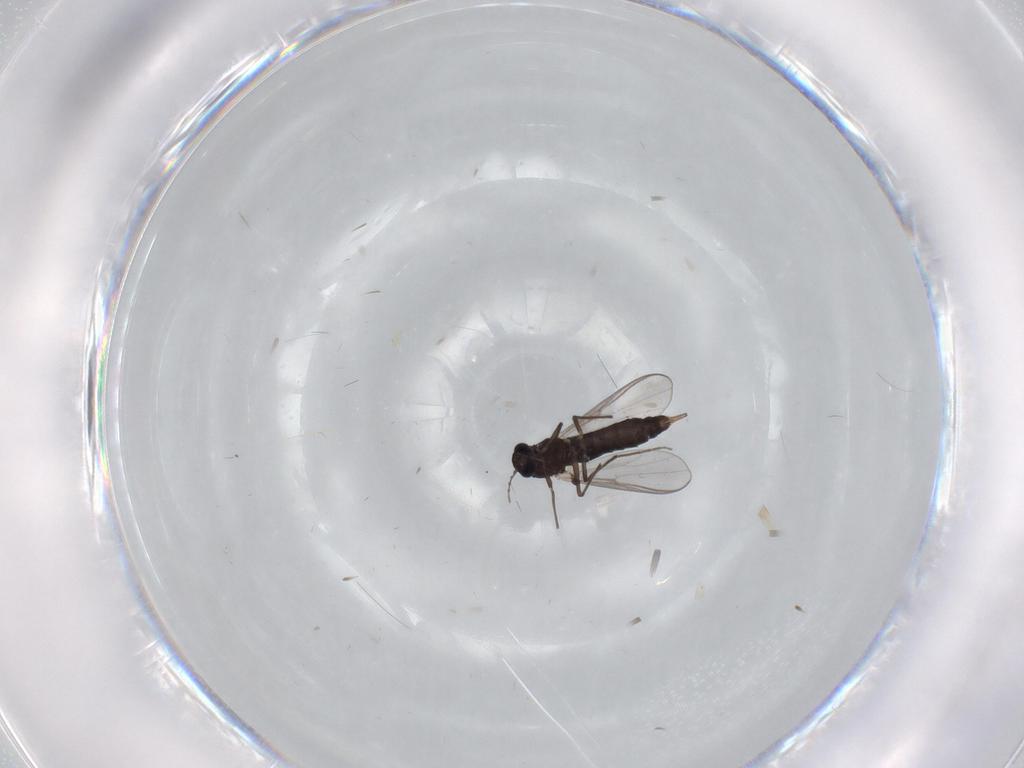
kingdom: Animalia
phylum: Arthropoda
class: Insecta
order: Diptera
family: Chironomidae
